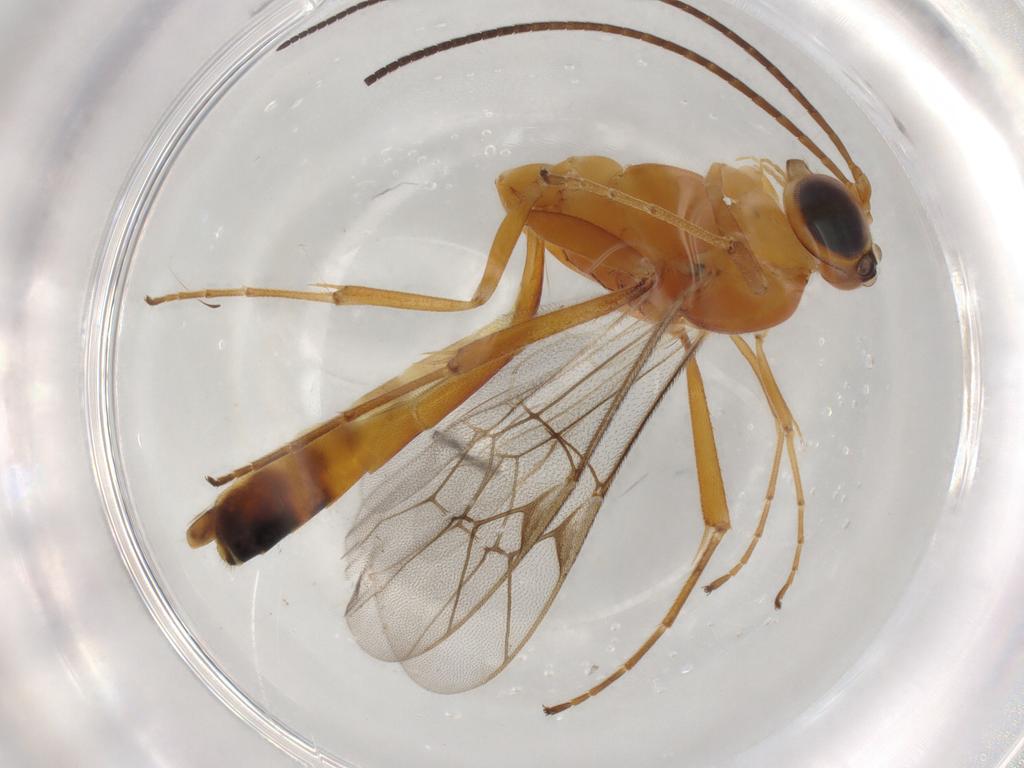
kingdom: Animalia
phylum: Arthropoda
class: Insecta
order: Hymenoptera
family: Ichneumonidae
